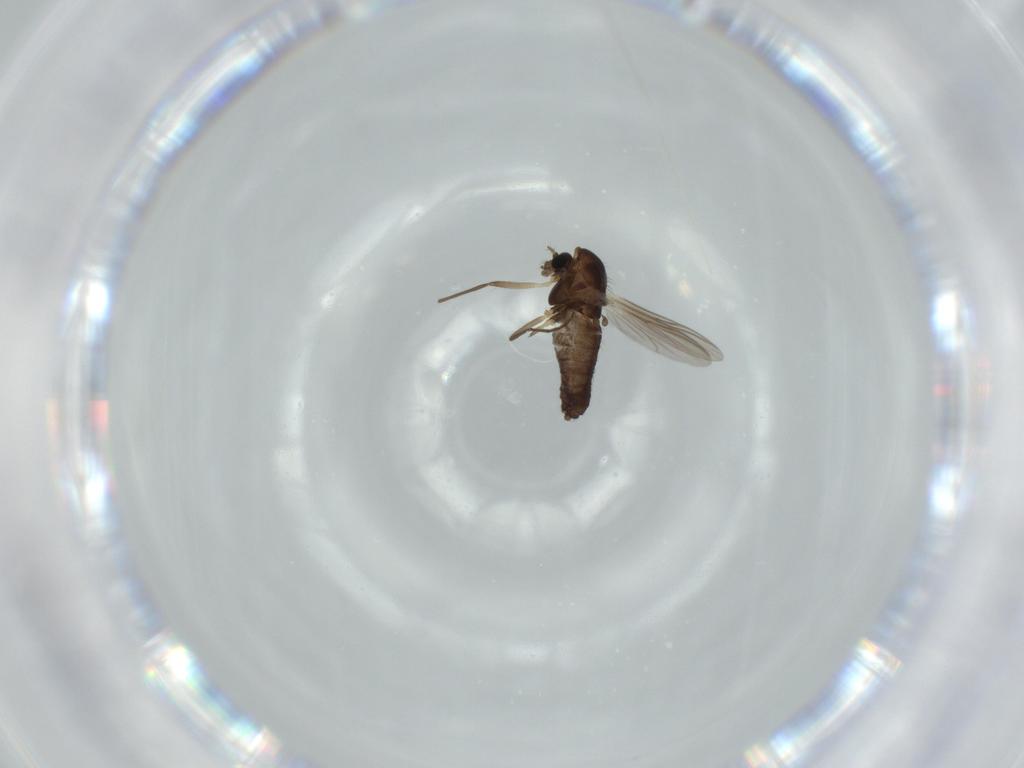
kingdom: Animalia
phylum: Arthropoda
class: Insecta
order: Diptera
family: Chironomidae
